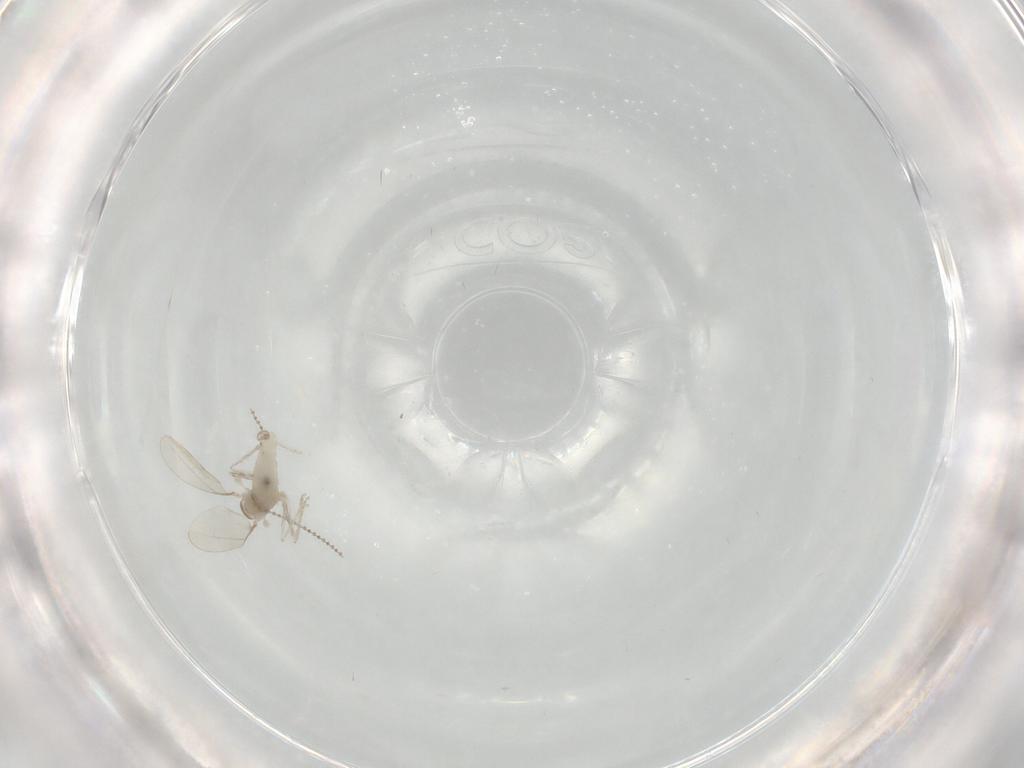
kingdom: Animalia
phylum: Arthropoda
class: Insecta
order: Diptera
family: Cecidomyiidae
